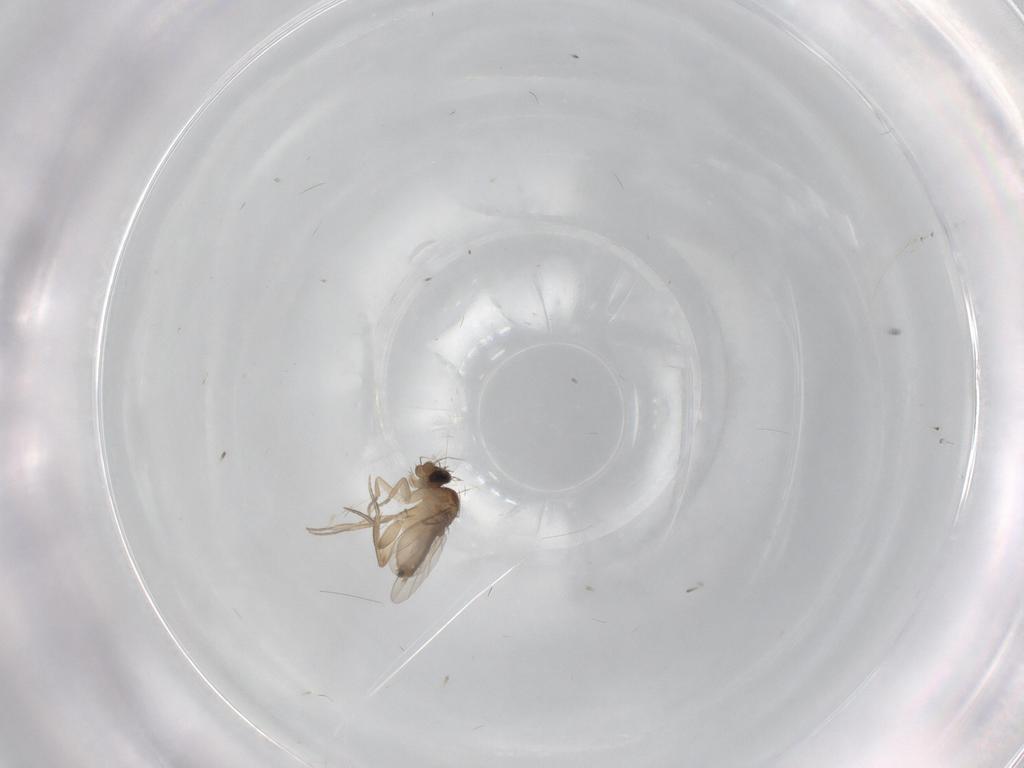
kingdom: Animalia
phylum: Arthropoda
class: Insecta
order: Diptera
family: Phoridae
